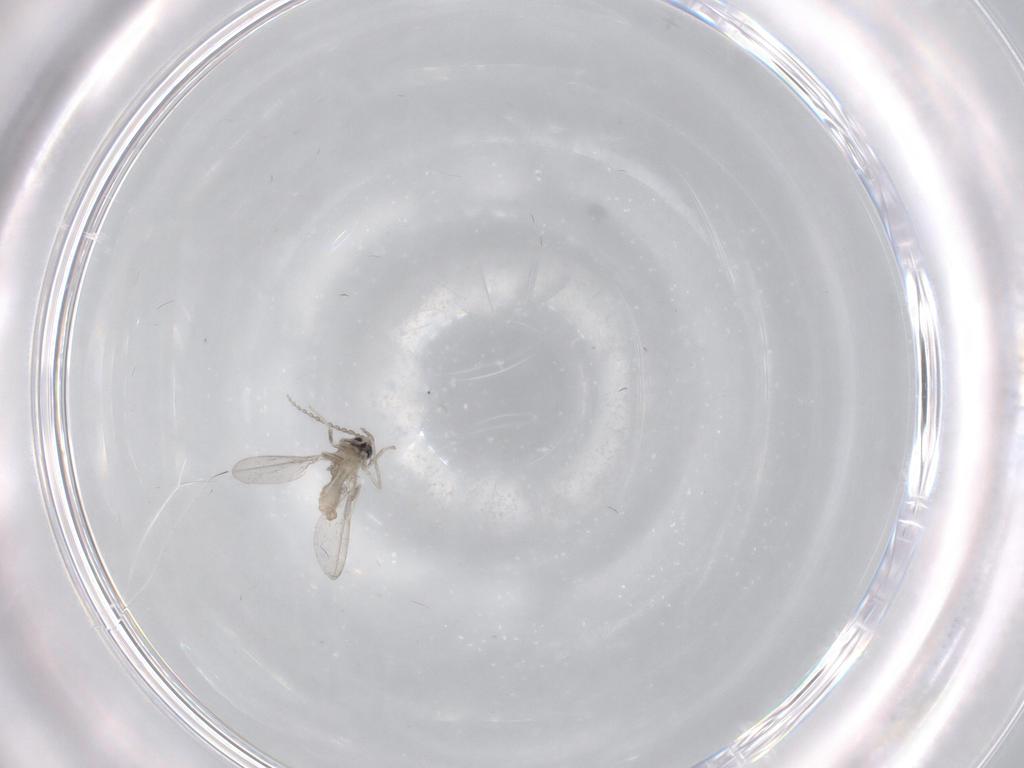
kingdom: Animalia
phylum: Arthropoda
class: Insecta
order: Diptera
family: Cecidomyiidae
